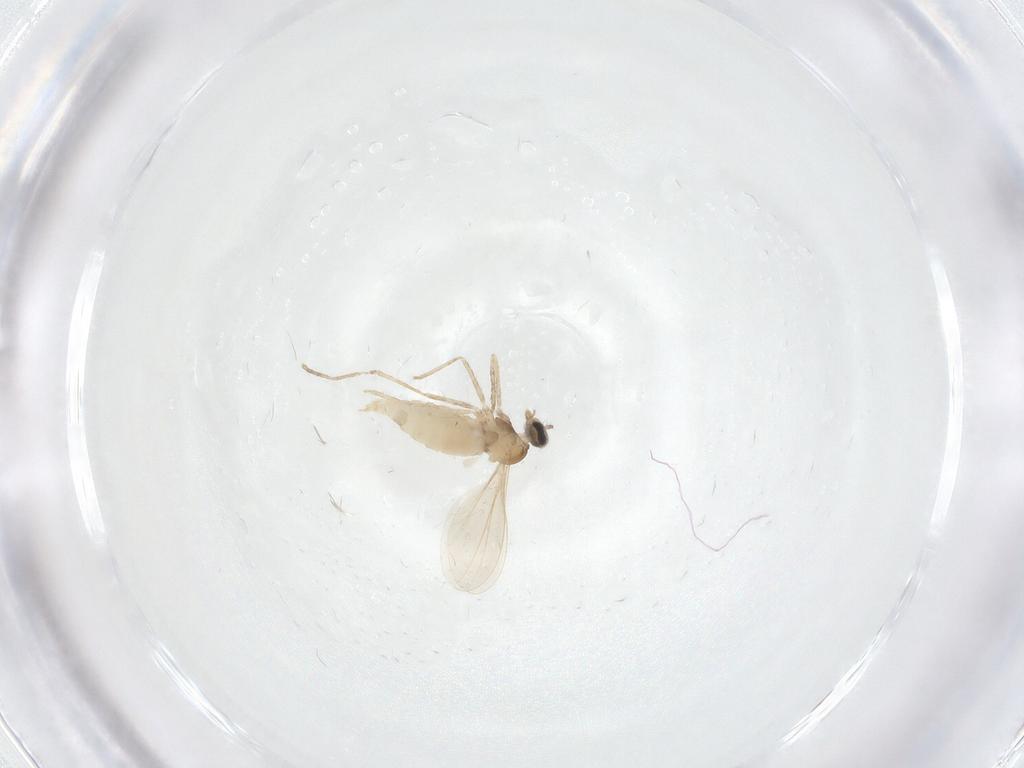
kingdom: Animalia
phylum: Arthropoda
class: Insecta
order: Diptera
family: Cecidomyiidae
